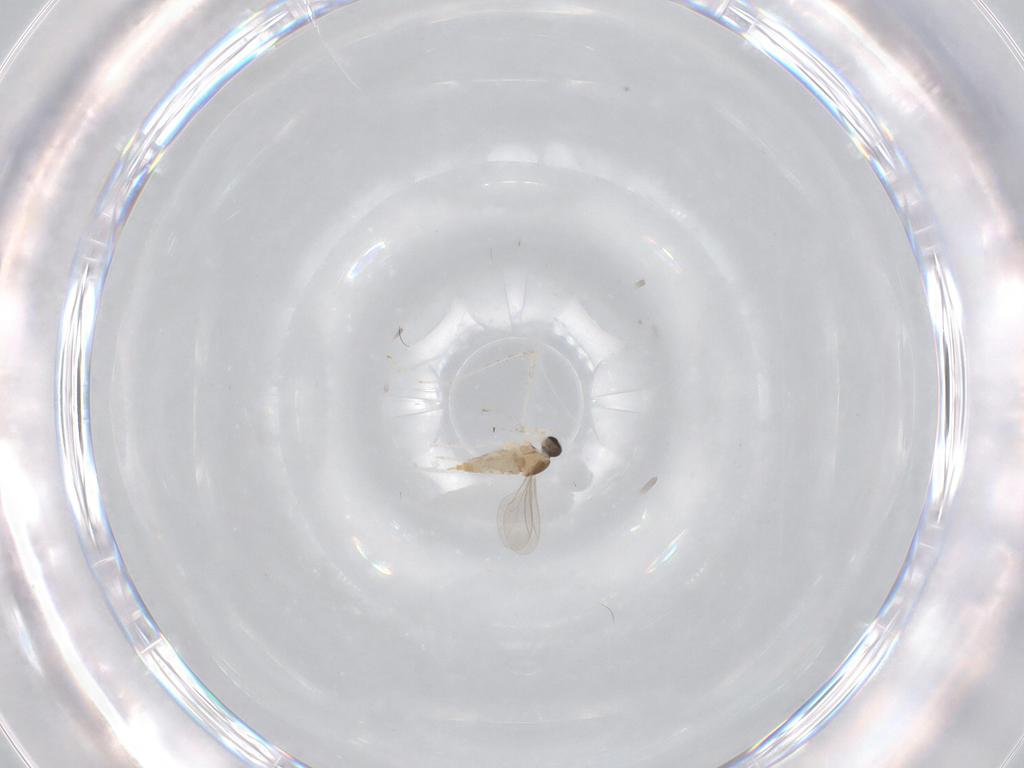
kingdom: Animalia
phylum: Arthropoda
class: Insecta
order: Diptera
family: Cecidomyiidae
